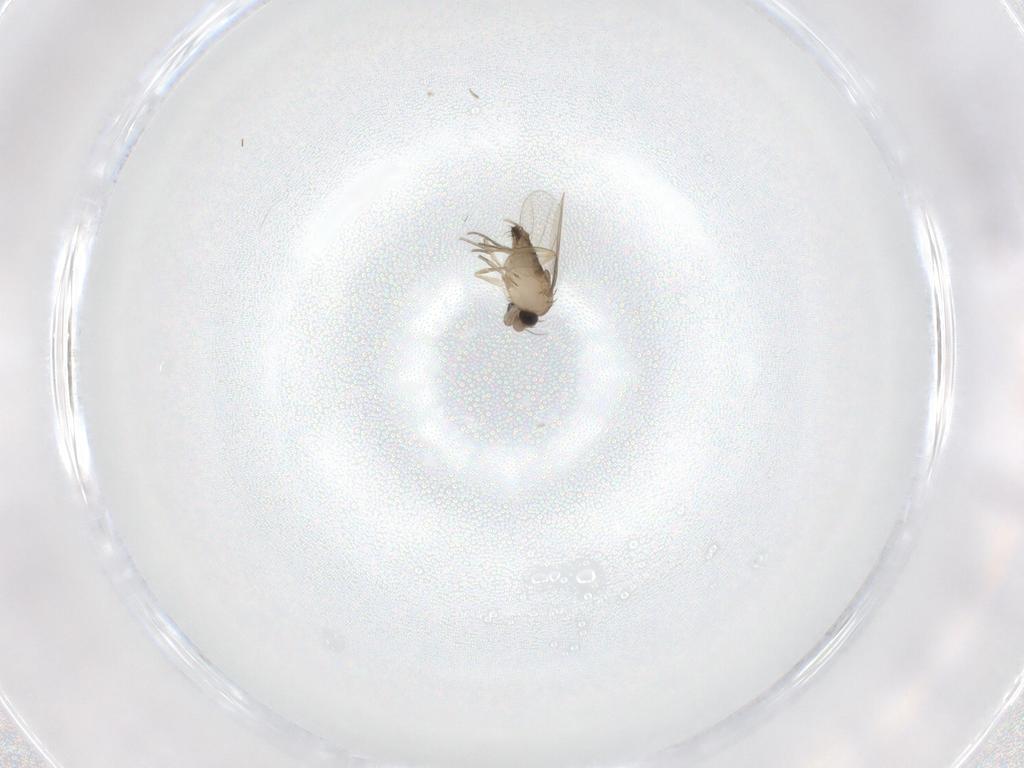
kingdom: Animalia
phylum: Arthropoda
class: Insecta
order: Diptera
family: Phoridae
